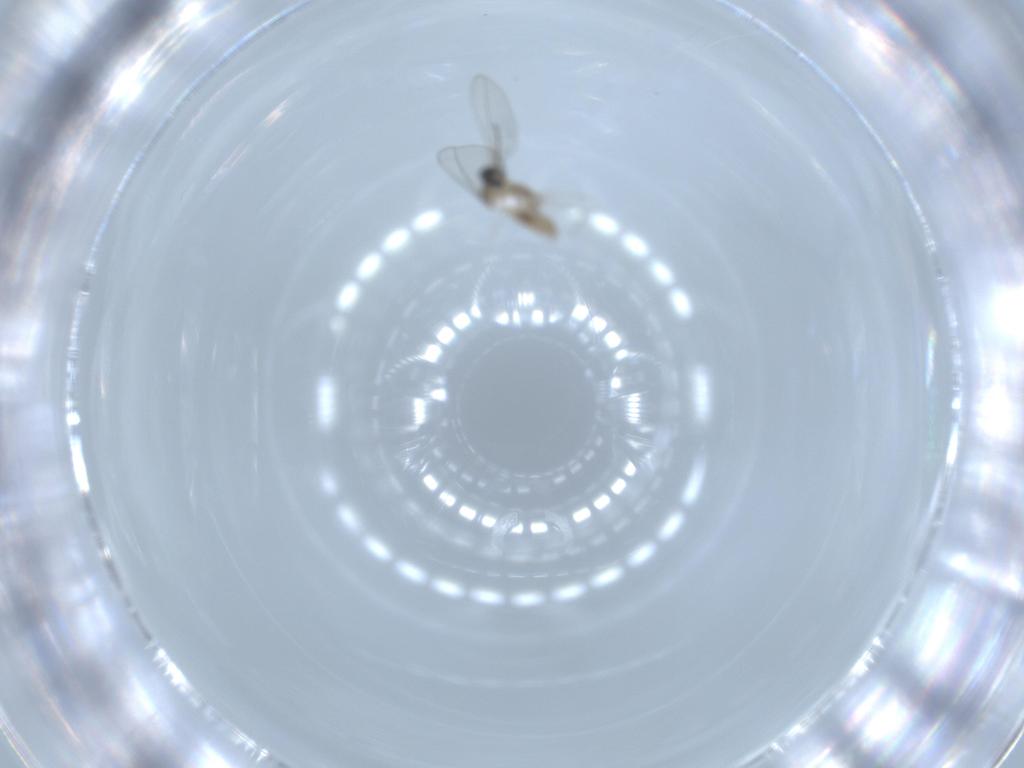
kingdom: Animalia
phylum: Arthropoda
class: Insecta
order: Diptera
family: Cecidomyiidae
